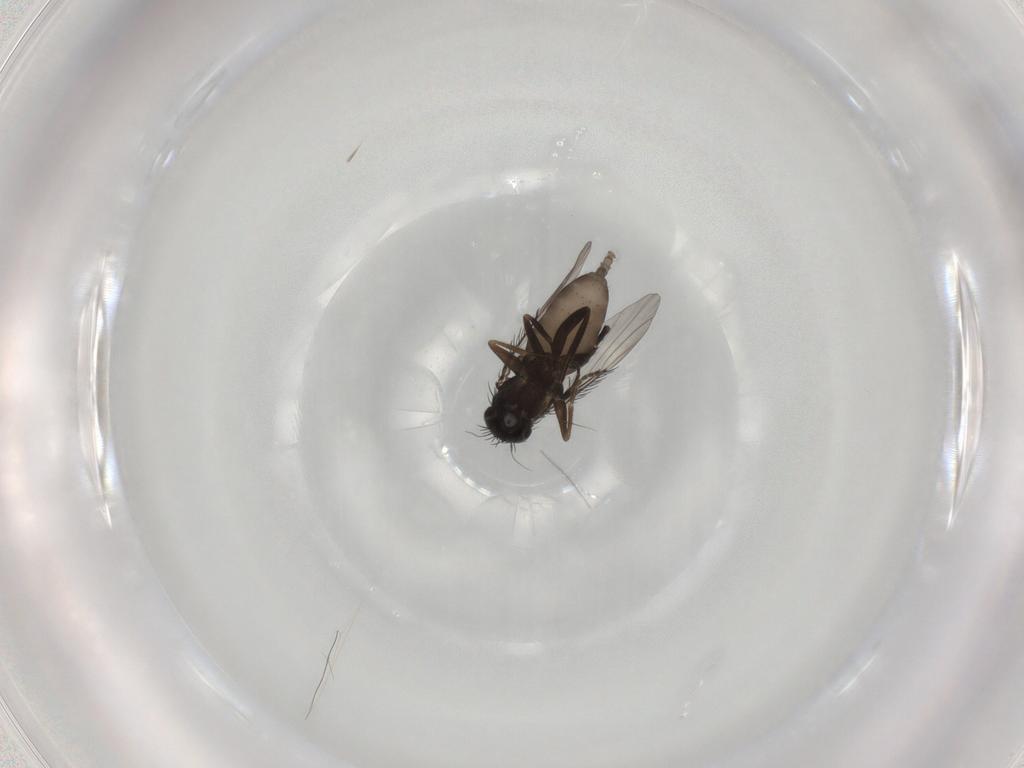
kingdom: Animalia
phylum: Arthropoda
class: Insecta
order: Diptera
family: Phoridae
